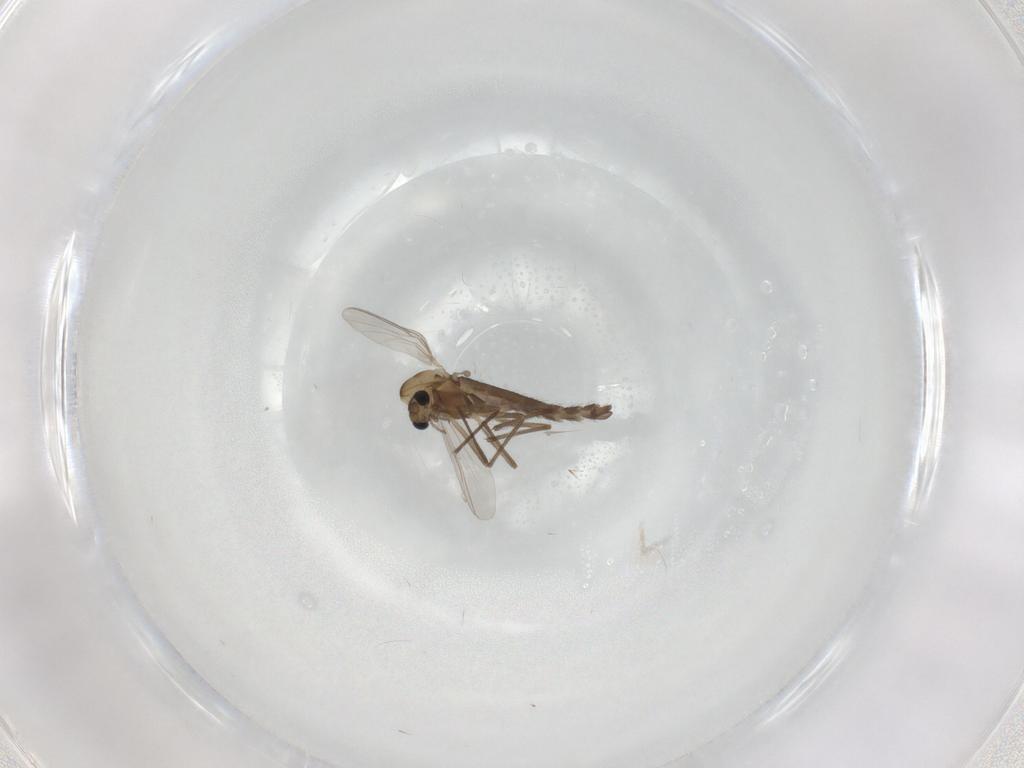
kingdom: Animalia
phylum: Arthropoda
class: Insecta
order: Diptera
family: Chironomidae
